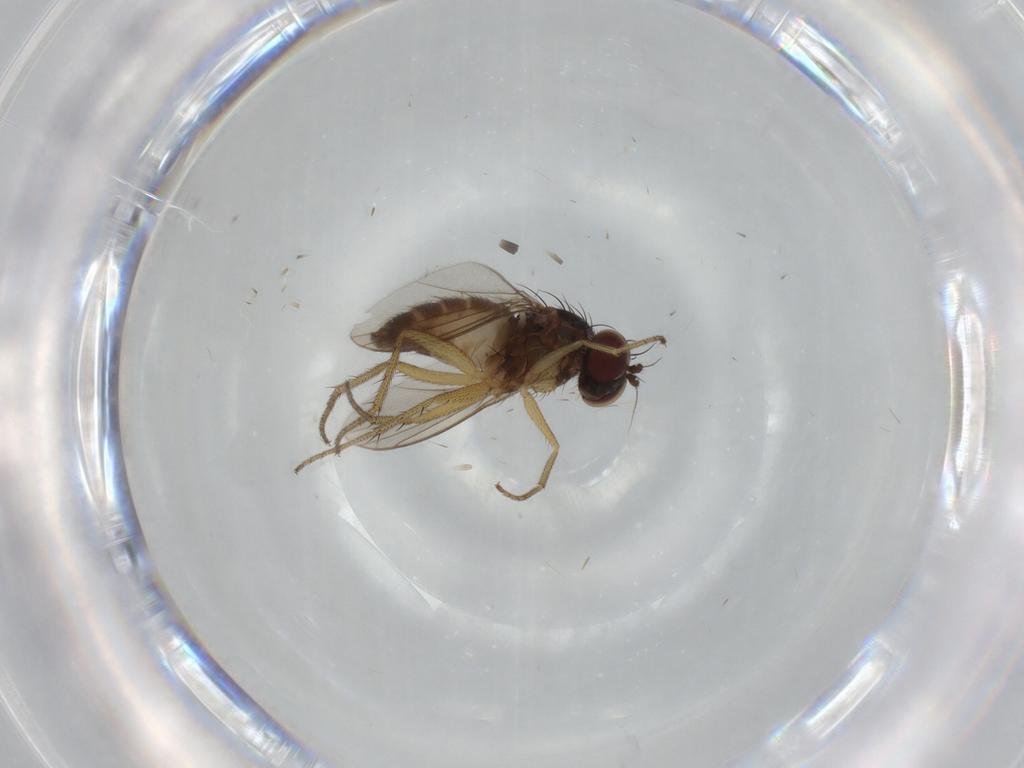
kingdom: Animalia
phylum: Arthropoda
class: Insecta
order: Diptera
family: Dolichopodidae
